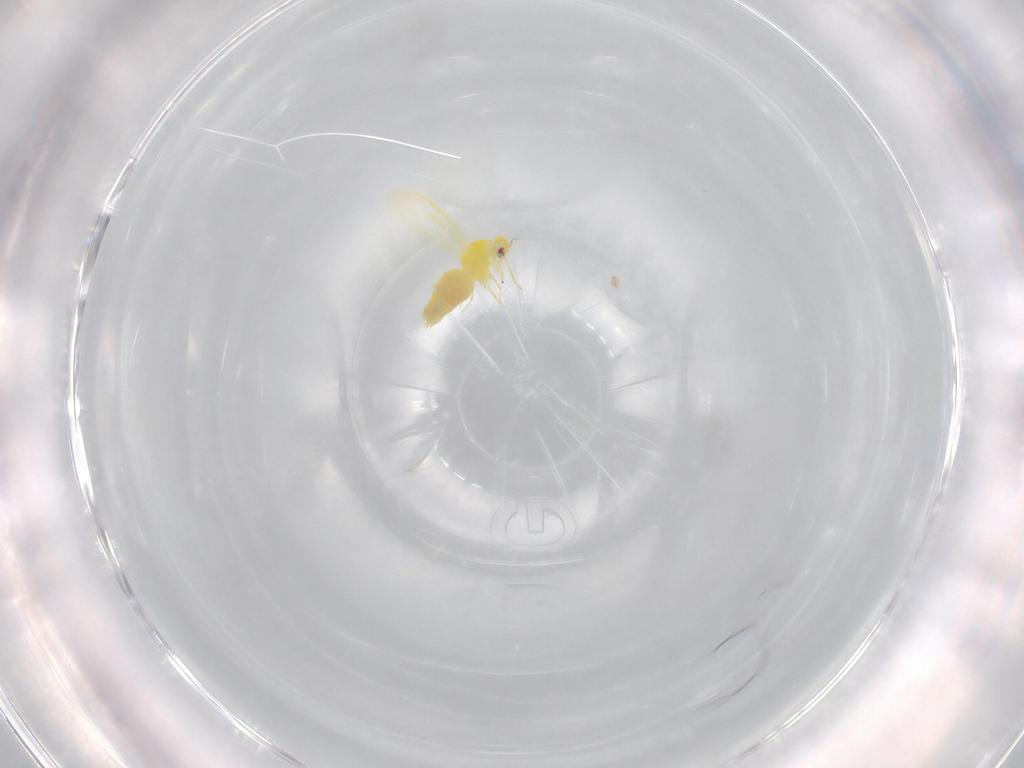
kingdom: Animalia
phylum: Arthropoda
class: Insecta
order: Hemiptera
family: Aleyrodidae
